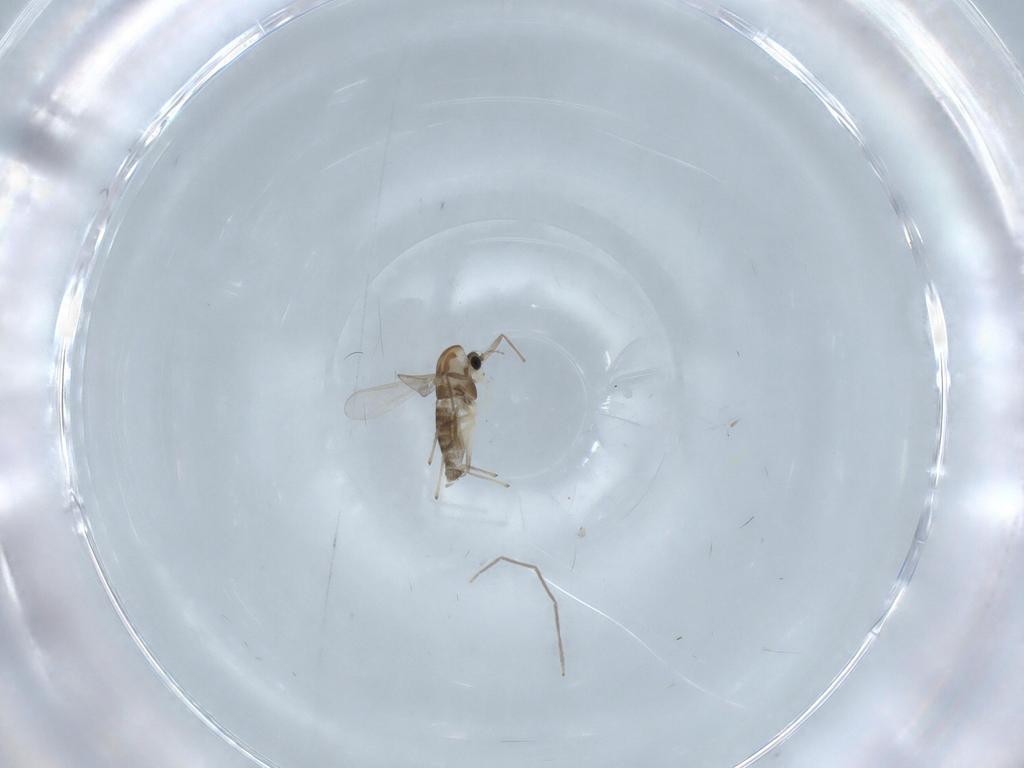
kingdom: Animalia
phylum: Arthropoda
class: Insecta
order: Diptera
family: Chironomidae
